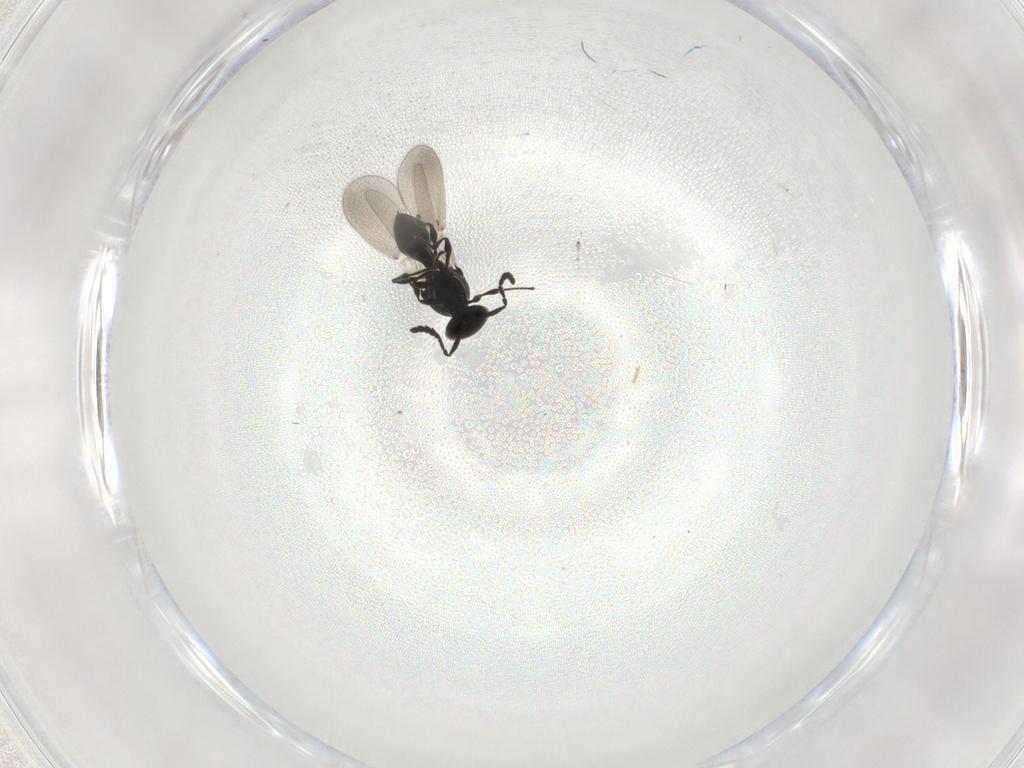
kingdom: Animalia
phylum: Arthropoda
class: Insecta
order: Hymenoptera
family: Platygastridae
